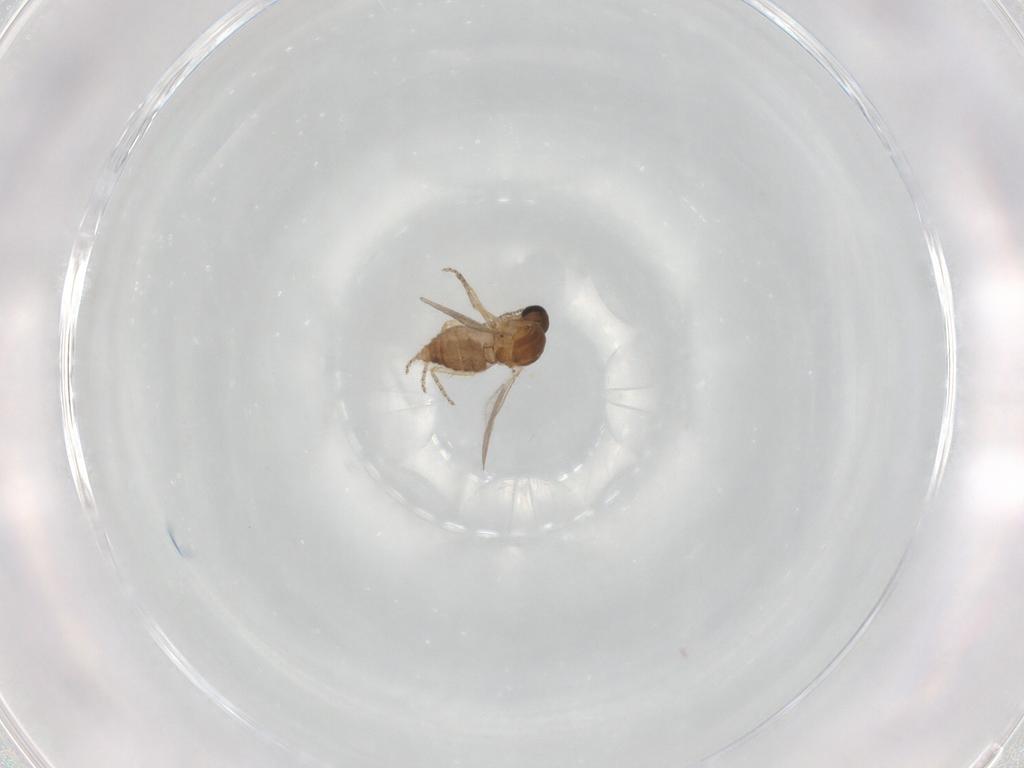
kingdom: Animalia
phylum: Arthropoda
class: Insecta
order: Diptera
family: Ceratopogonidae
